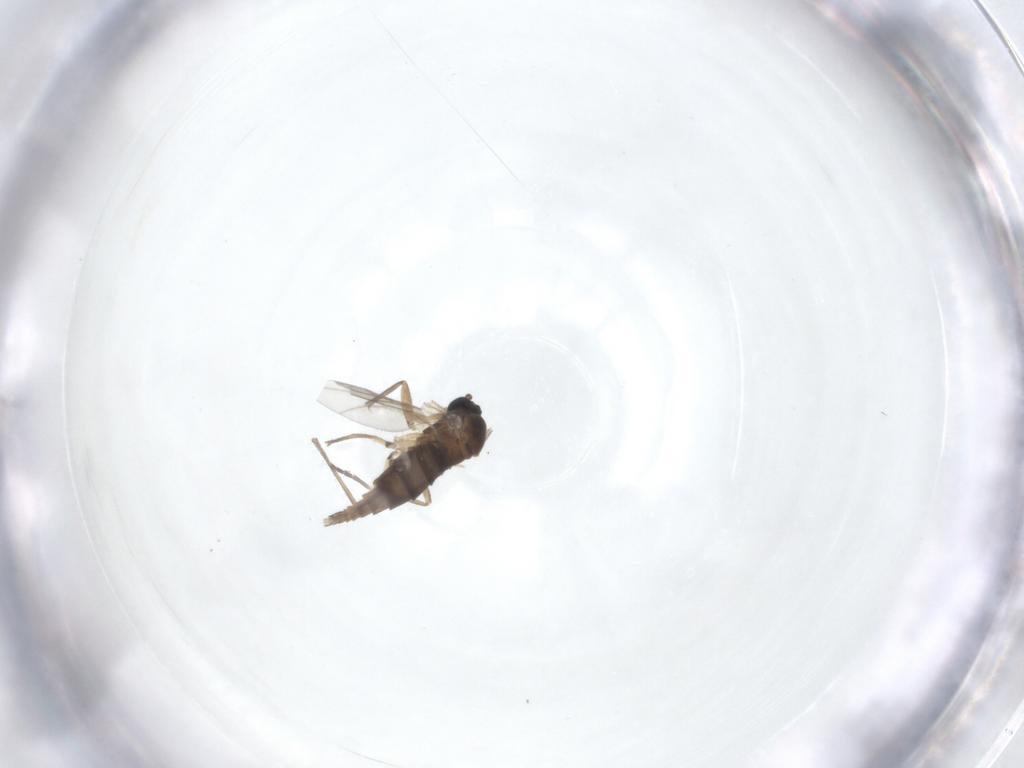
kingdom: Animalia
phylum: Arthropoda
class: Insecta
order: Diptera
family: Sciaridae
